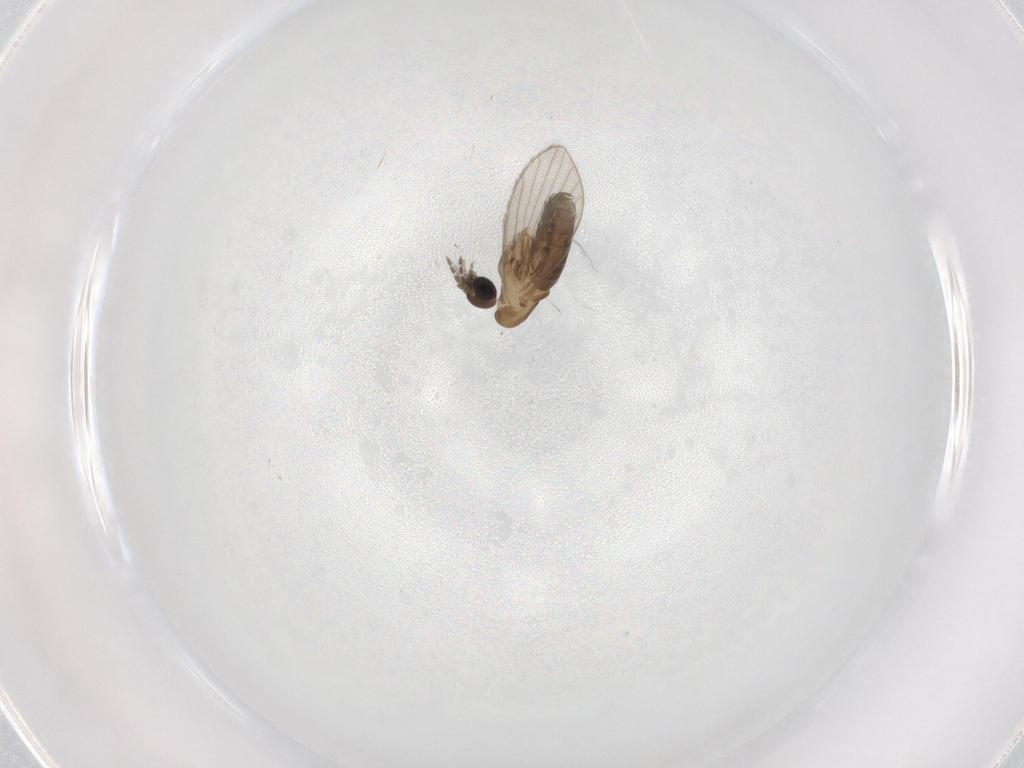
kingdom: Animalia
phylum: Arthropoda
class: Insecta
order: Diptera
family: Psychodidae
